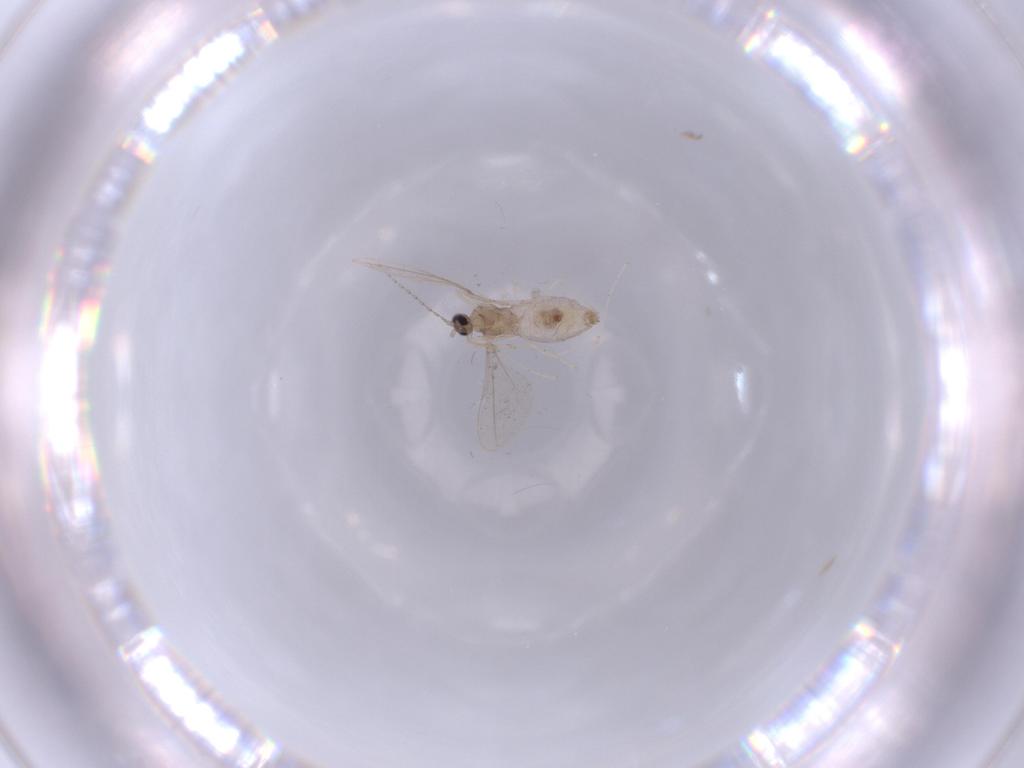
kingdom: Animalia
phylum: Arthropoda
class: Insecta
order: Diptera
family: Cecidomyiidae
